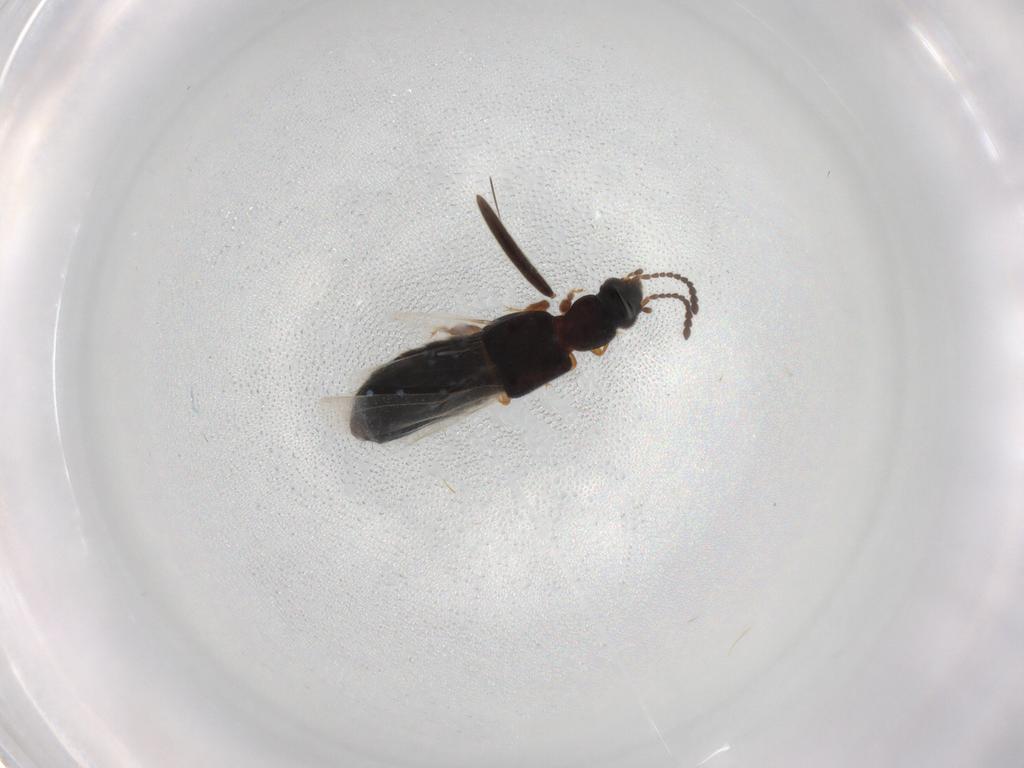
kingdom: Animalia
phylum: Arthropoda
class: Insecta
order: Coleoptera
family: Staphylinidae
